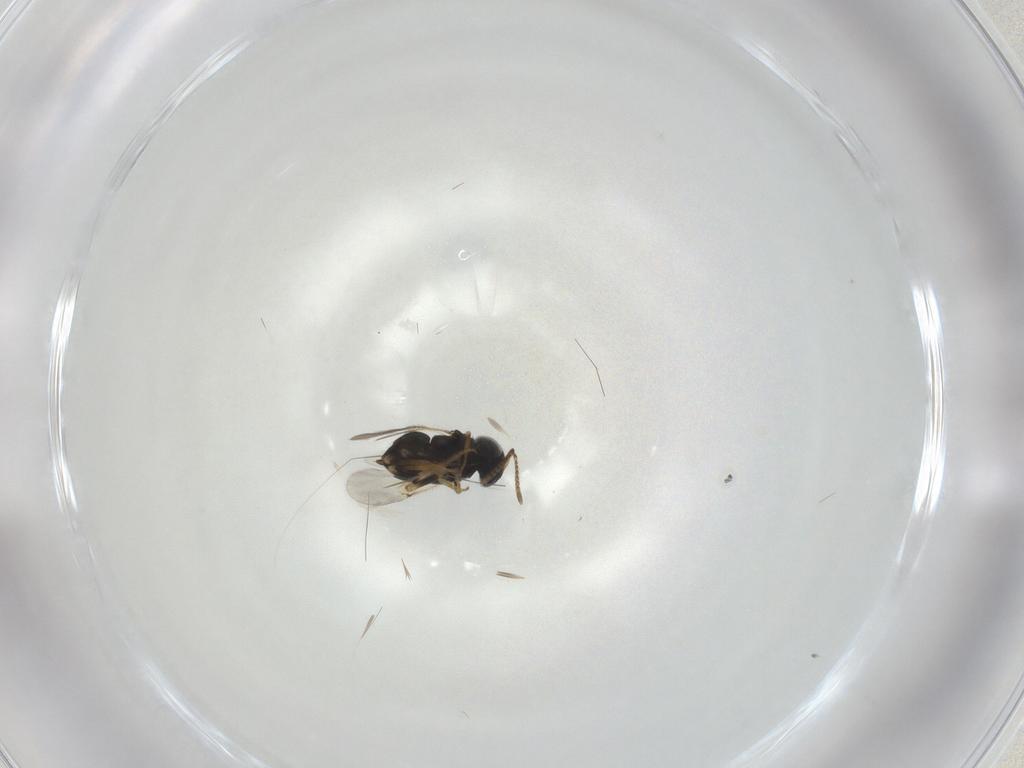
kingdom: Animalia
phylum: Arthropoda
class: Insecta
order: Diptera
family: Cecidomyiidae
